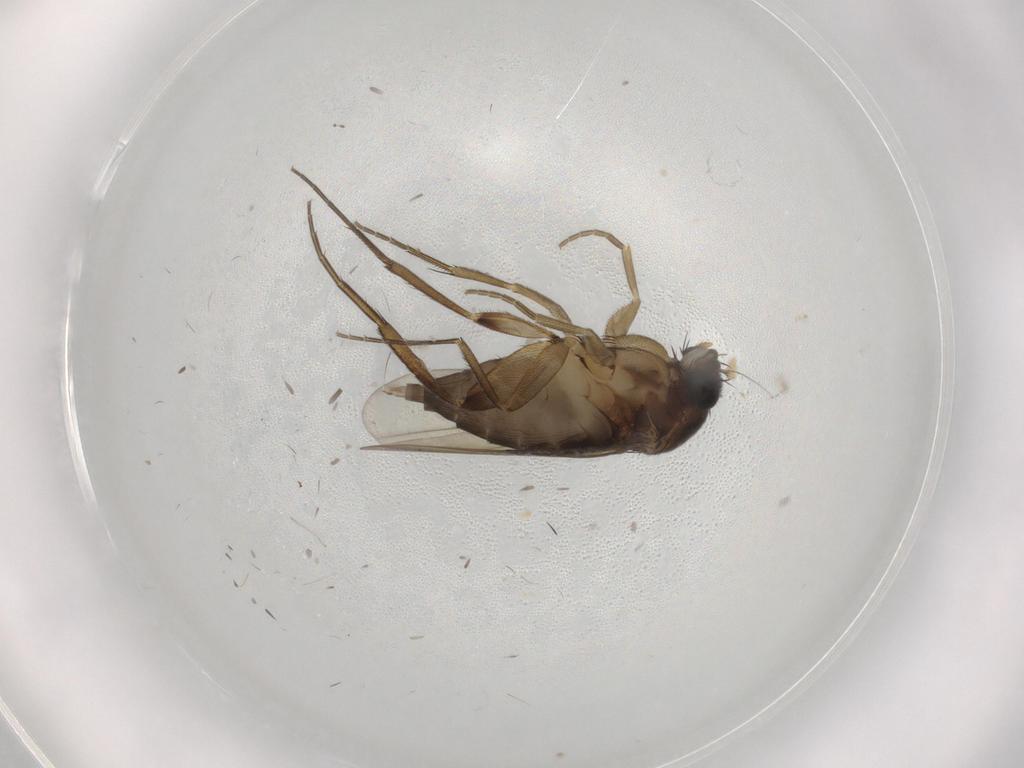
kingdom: Animalia
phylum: Arthropoda
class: Insecta
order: Diptera
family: Phoridae
